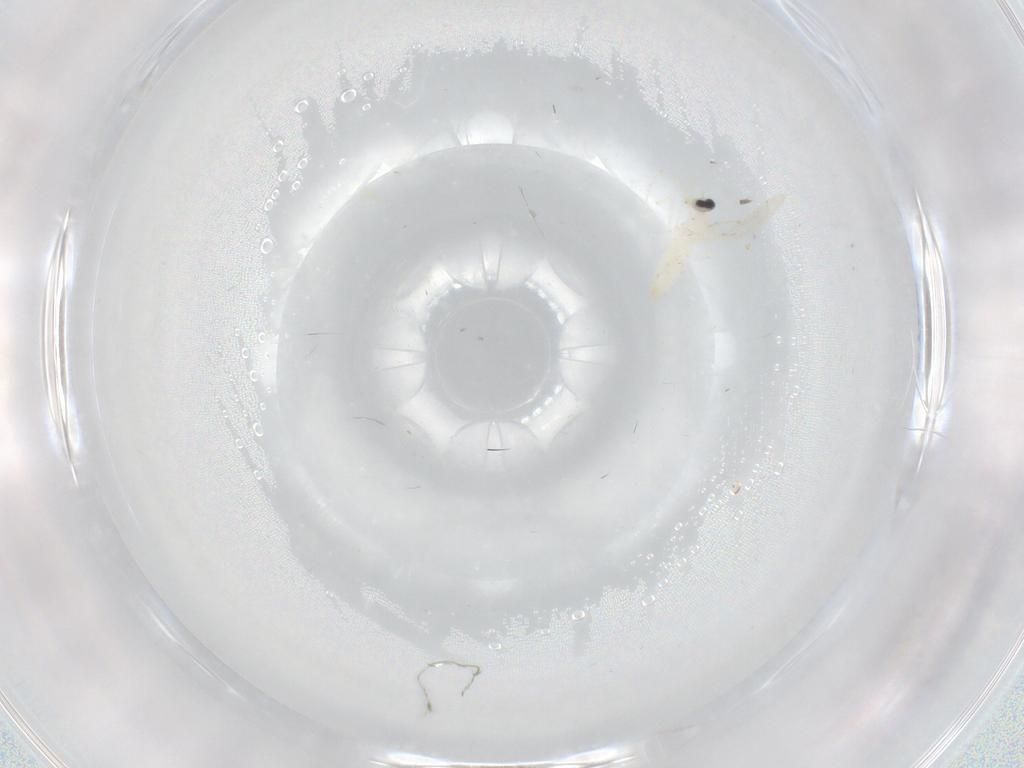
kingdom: Animalia
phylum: Arthropoda
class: Insecta
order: Diptera
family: Cecidomyiidae
